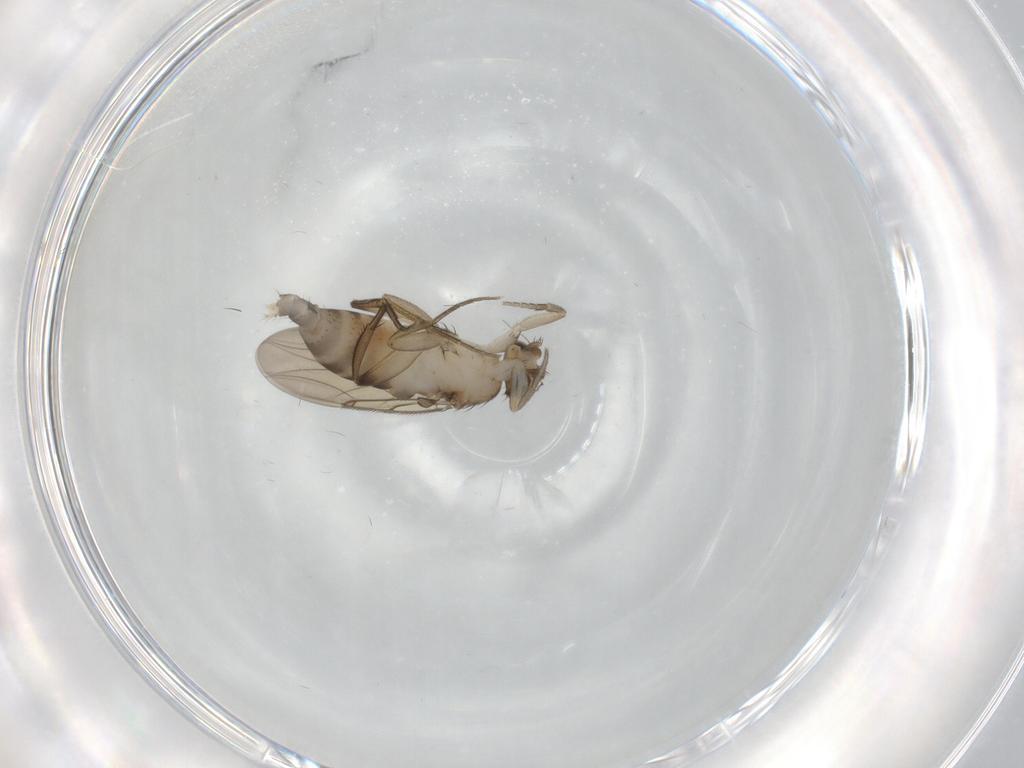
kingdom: Animalia
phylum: Arthropoda
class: Insecta
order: Diptera
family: Phoridae
